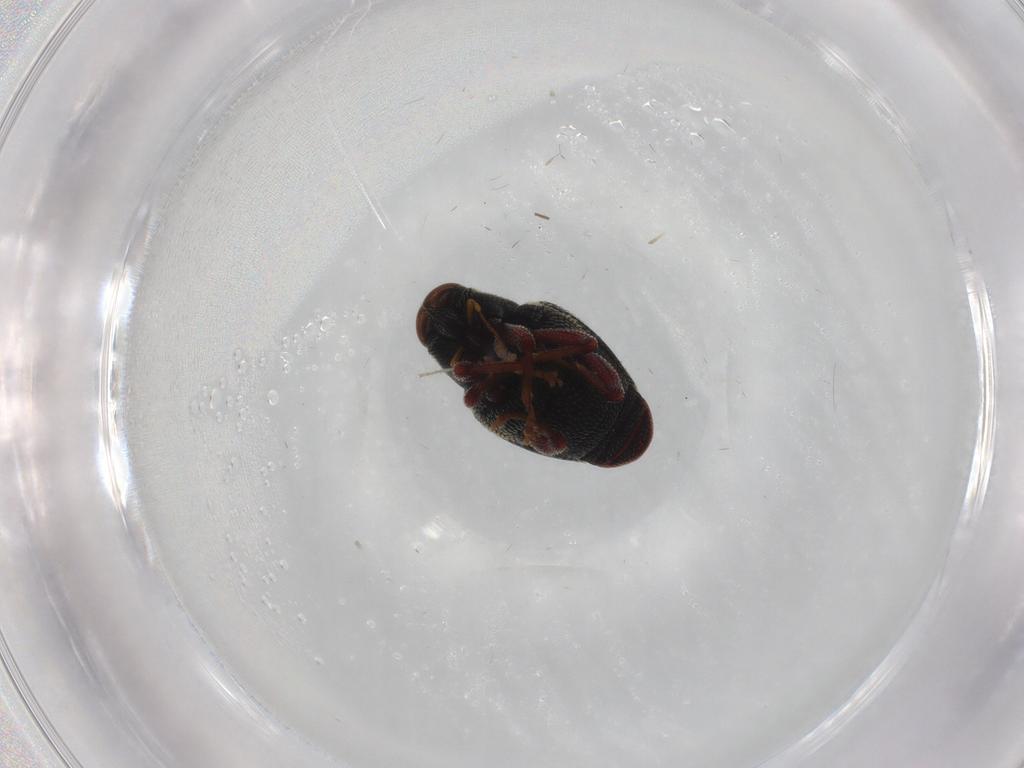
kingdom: Animalia
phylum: Arthropoda
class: Insecta
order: Coleoptera
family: Curculionidae
